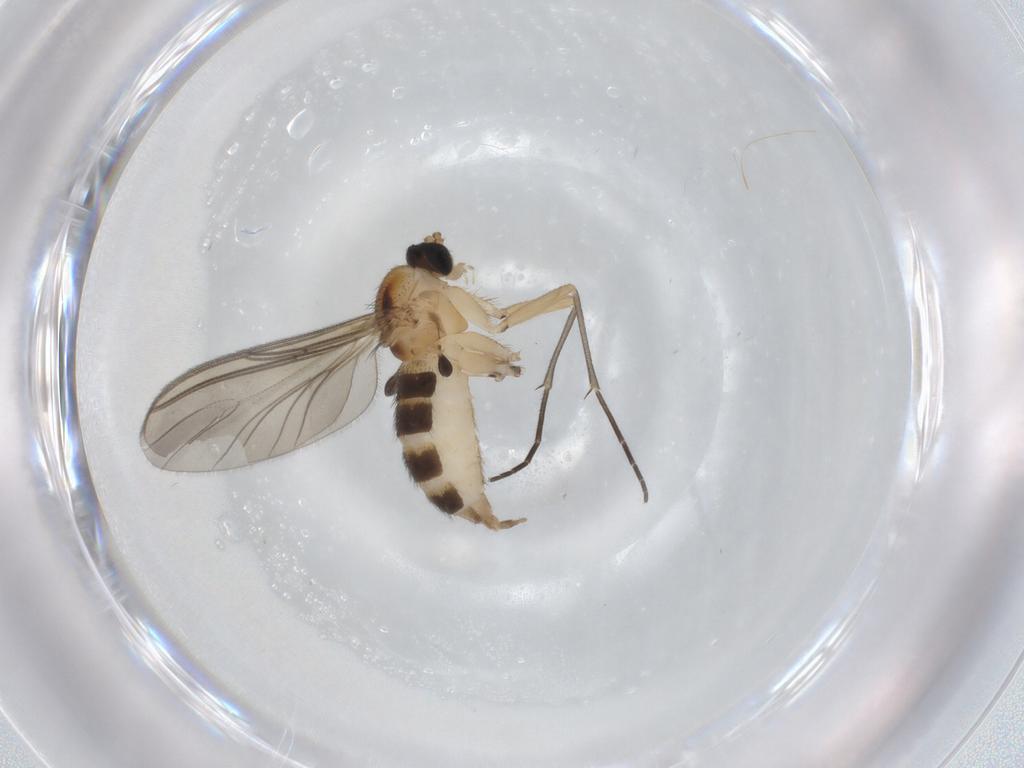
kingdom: Animalia
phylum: Arthropoda
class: Insecta
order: Diptera
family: Sciaridae
